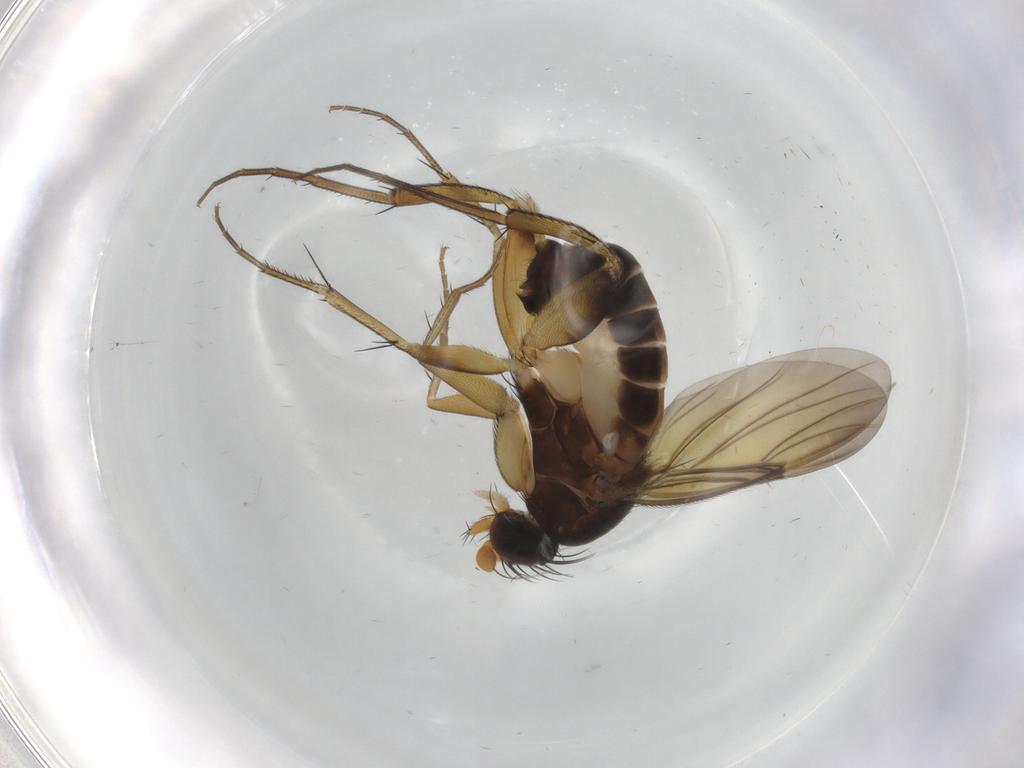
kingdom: Animalia
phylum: Arthropoda
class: Insecta
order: Diptera
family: Phoridae
